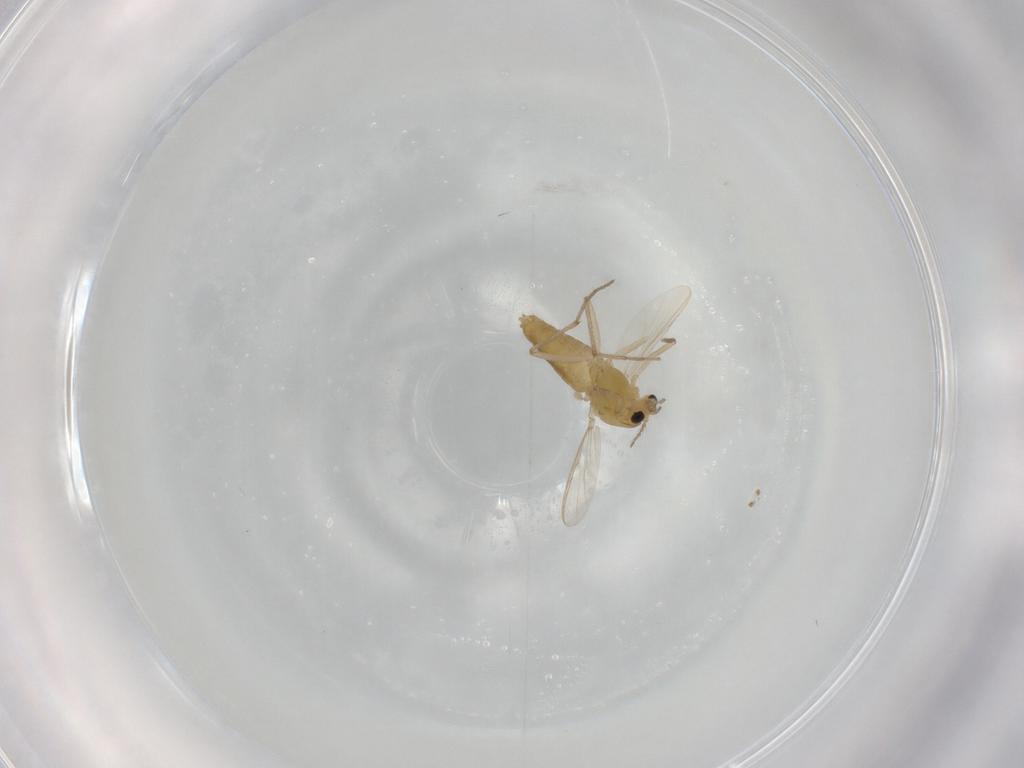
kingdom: Animalia
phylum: Arthropoda
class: Insecta
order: Diptera
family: Chironomidae
